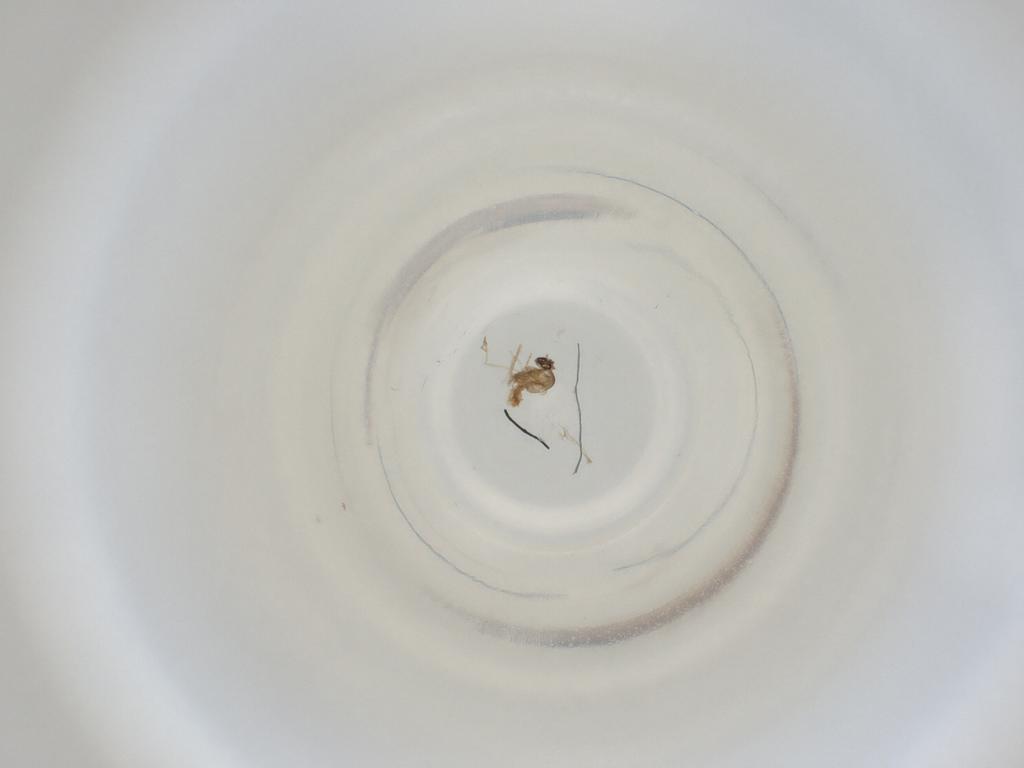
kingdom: Animalia
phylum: Arthropoda
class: Insecta
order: Diptera
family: Cecidomyiidae
